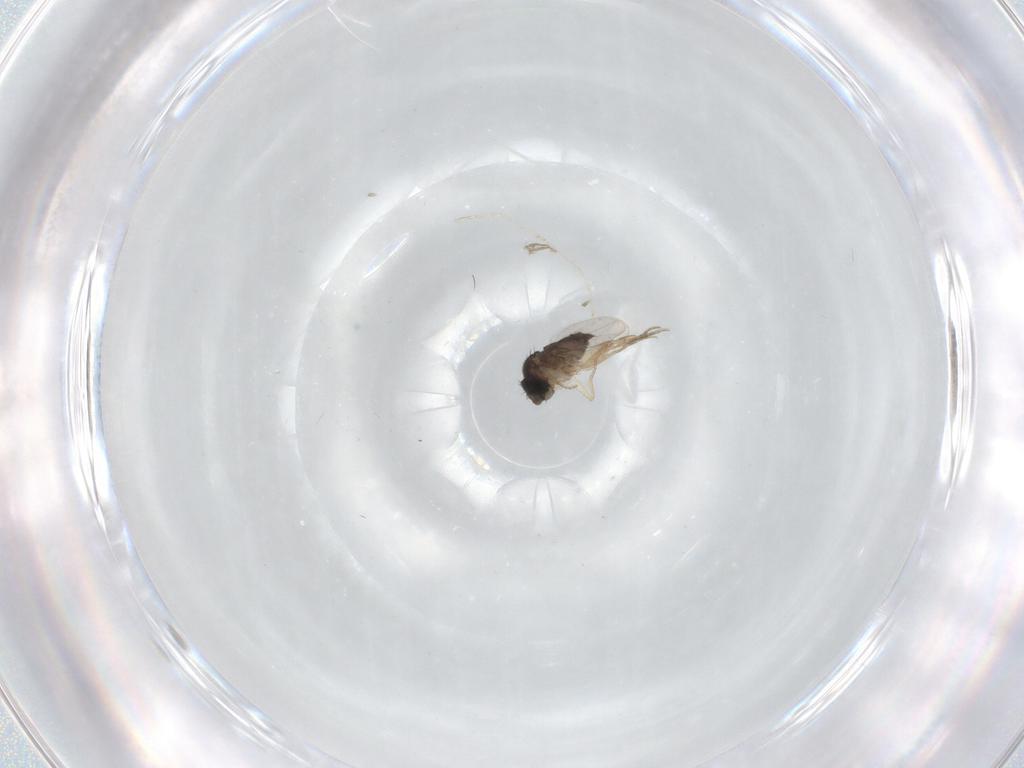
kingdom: Animalia
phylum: Arthropoda
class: Insecta
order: Diptera
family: Phoridae
